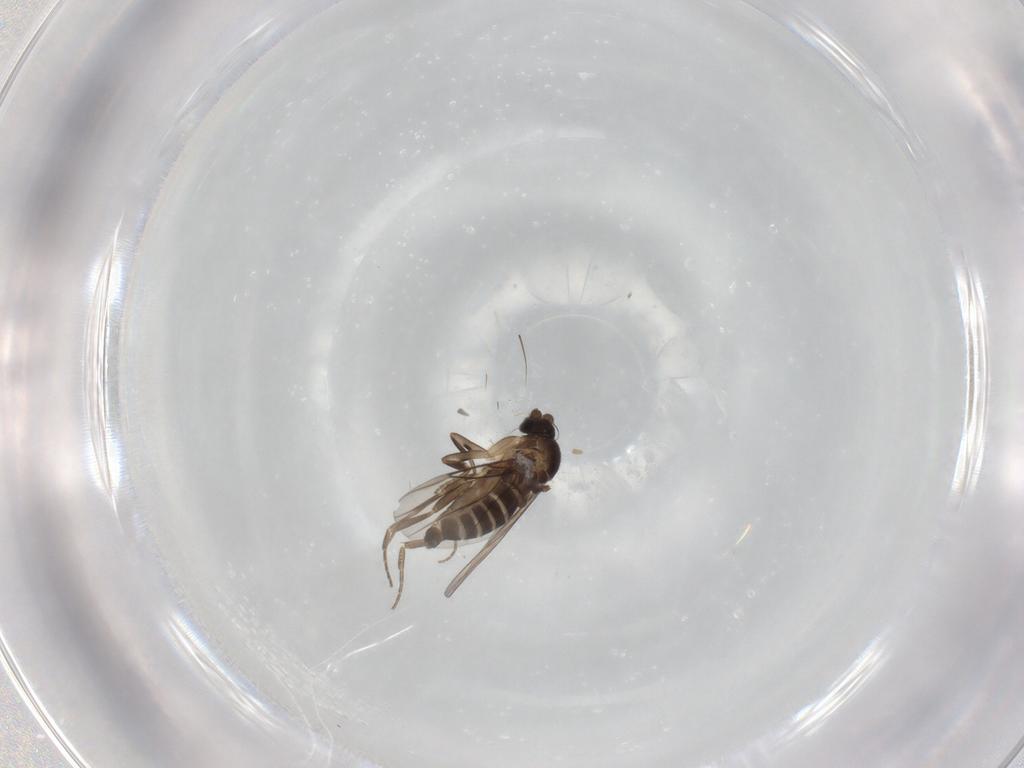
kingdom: Animalia
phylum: Arthropoda
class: Insecta
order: Diptera
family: Phoridae
